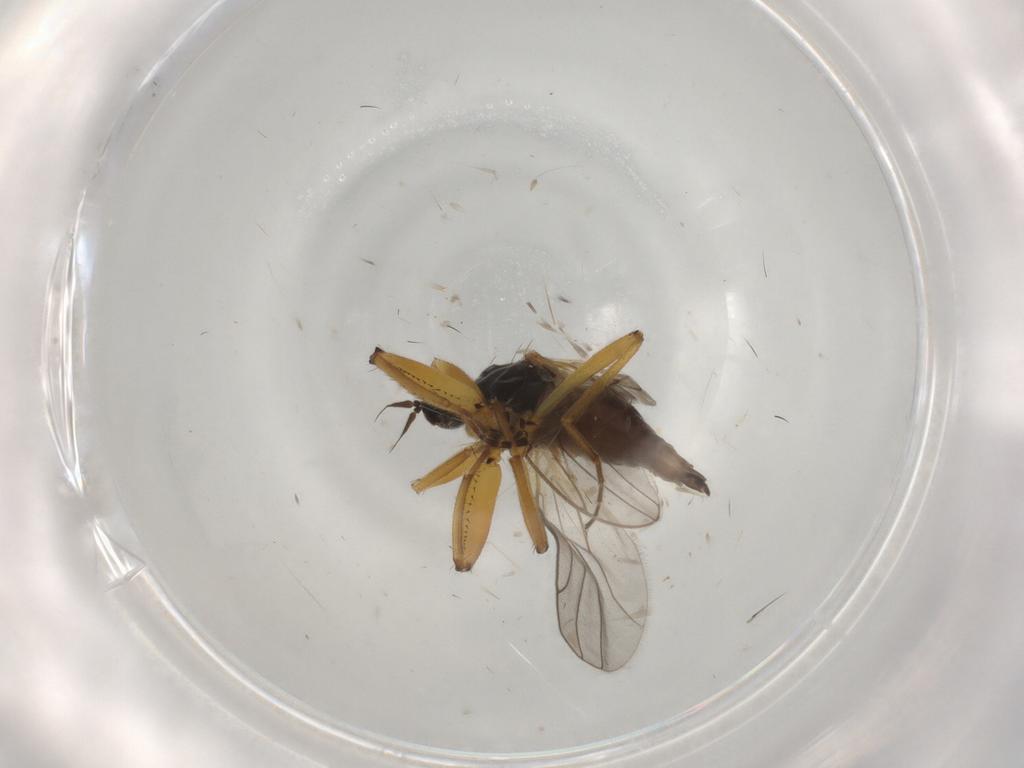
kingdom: Animalia
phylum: Arthropoda
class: Insecta
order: Diptera
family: Hybotidae
